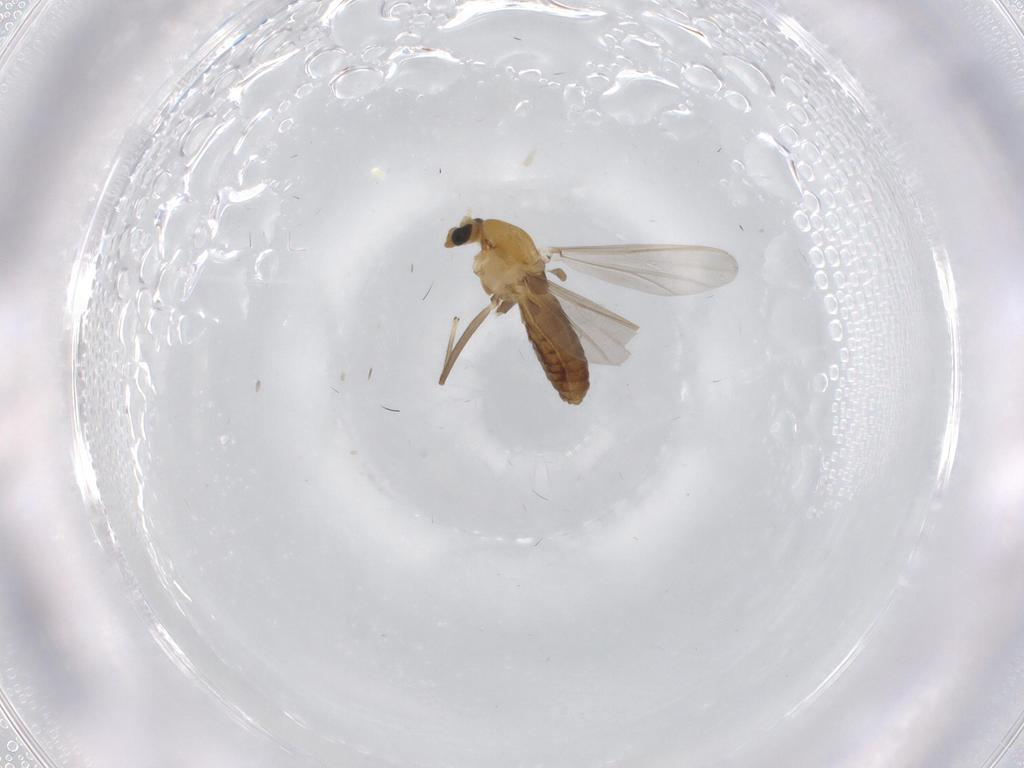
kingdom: Animalia
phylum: Arthropoda
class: Insecta
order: Diptera
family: Chironomidae
